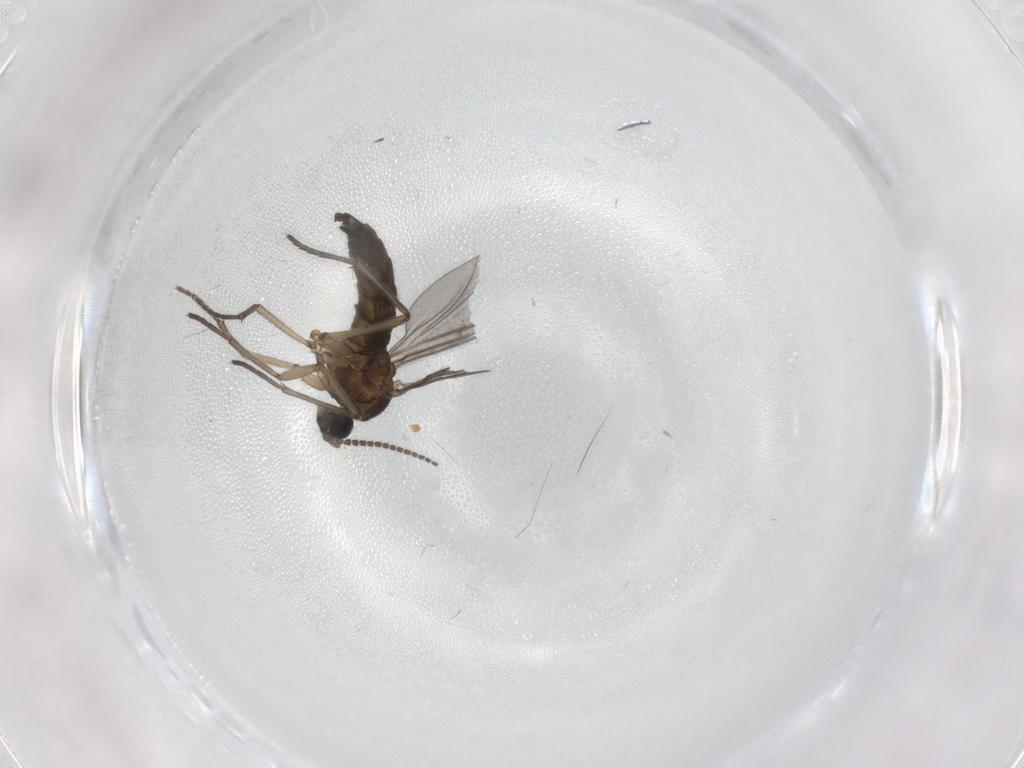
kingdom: Animalia
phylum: Arthropoda
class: Insecta
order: Diptera
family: Sciaridae
